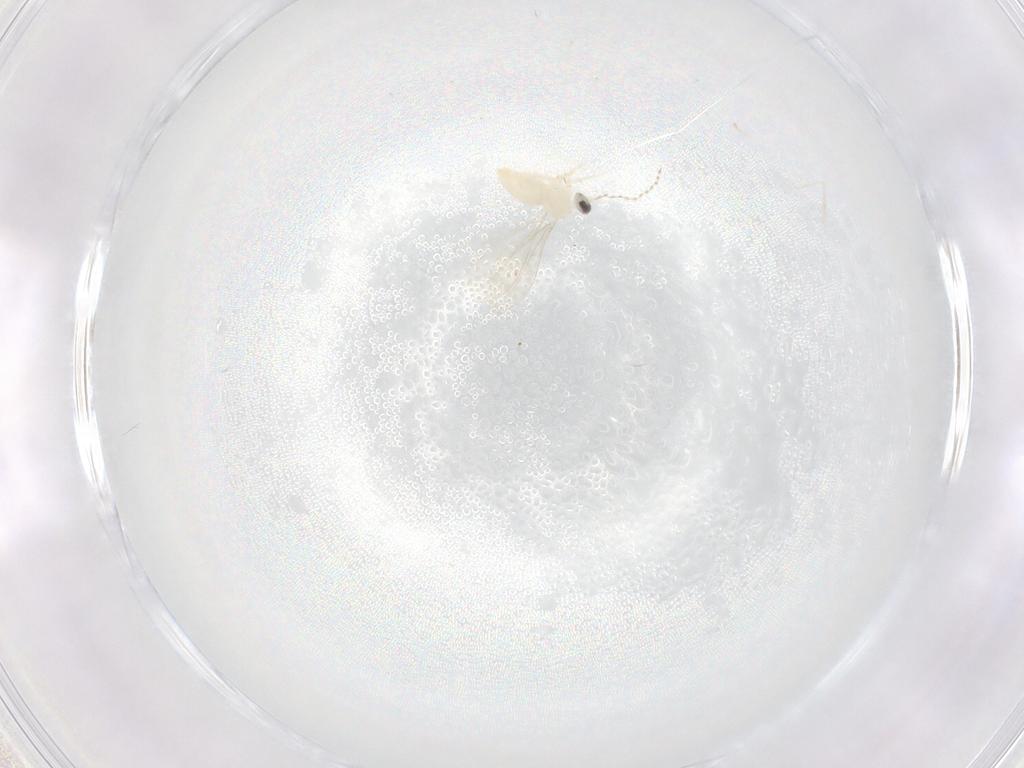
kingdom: Animalia
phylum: Arthropoda
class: Insecta
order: Diptera
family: Cecidomyiidae
